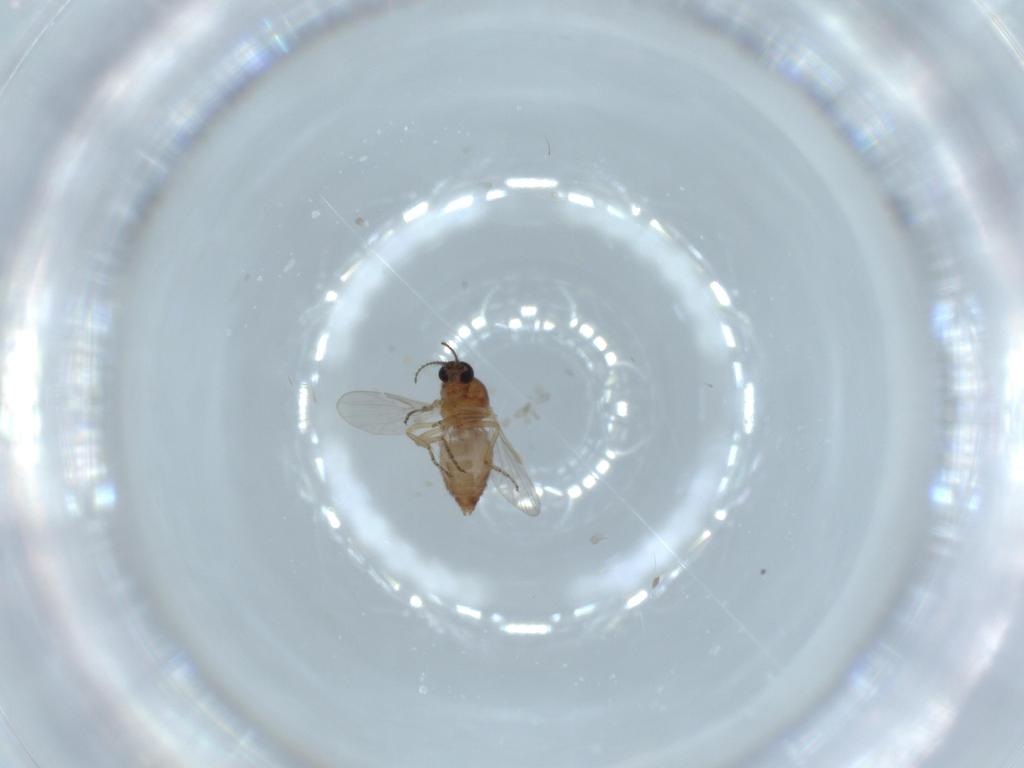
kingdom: Animalia
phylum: Arthropoda
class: Insecta
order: Diptera
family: Ceratopogonidae
